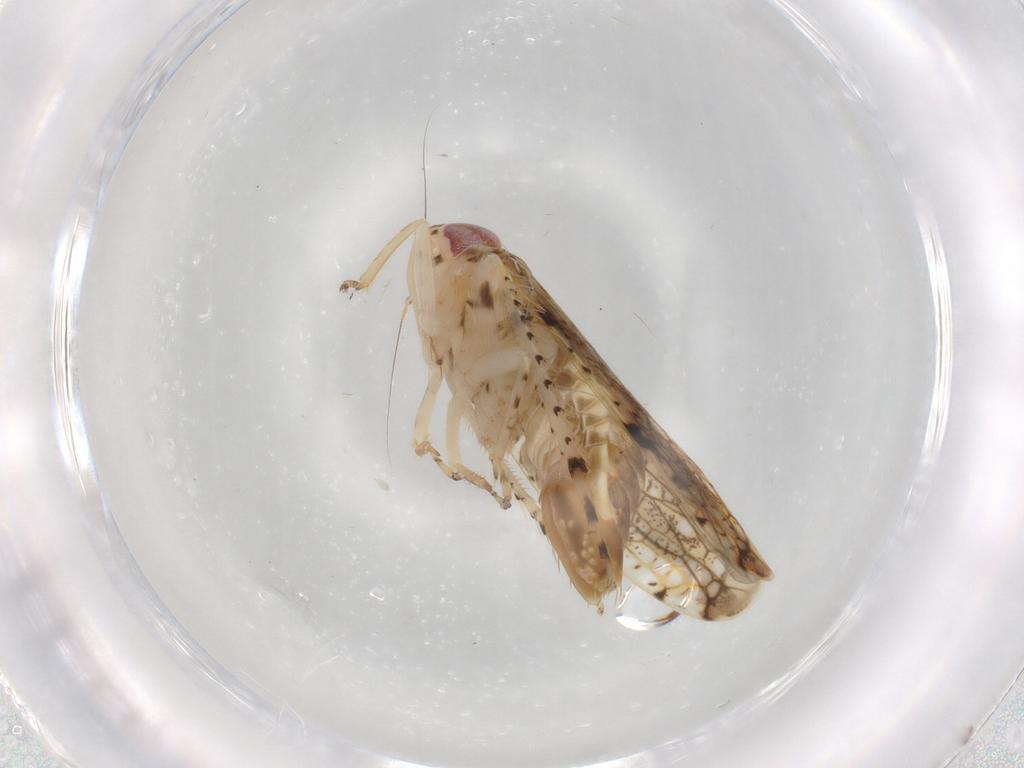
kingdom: Animalia
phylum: Arthropoda
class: Insecta
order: Hemiptera
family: Cicadellidae
